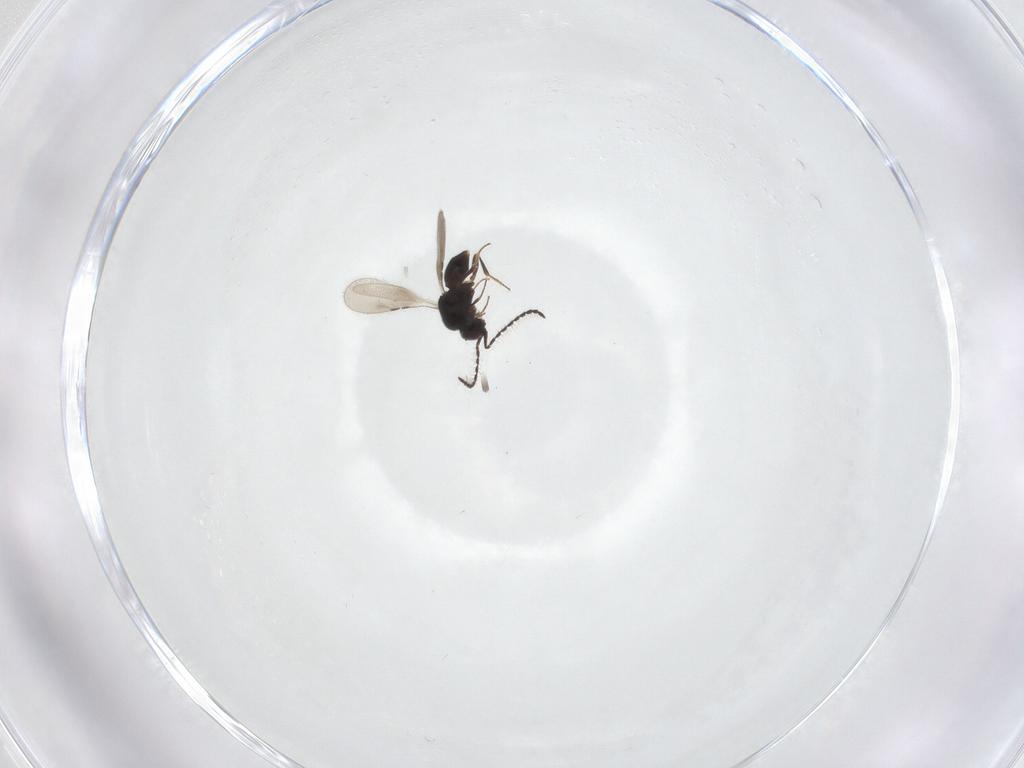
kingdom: Animalia
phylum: Arthropoda
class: Insecta
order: Hymenoptera
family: Ceraphronidae
